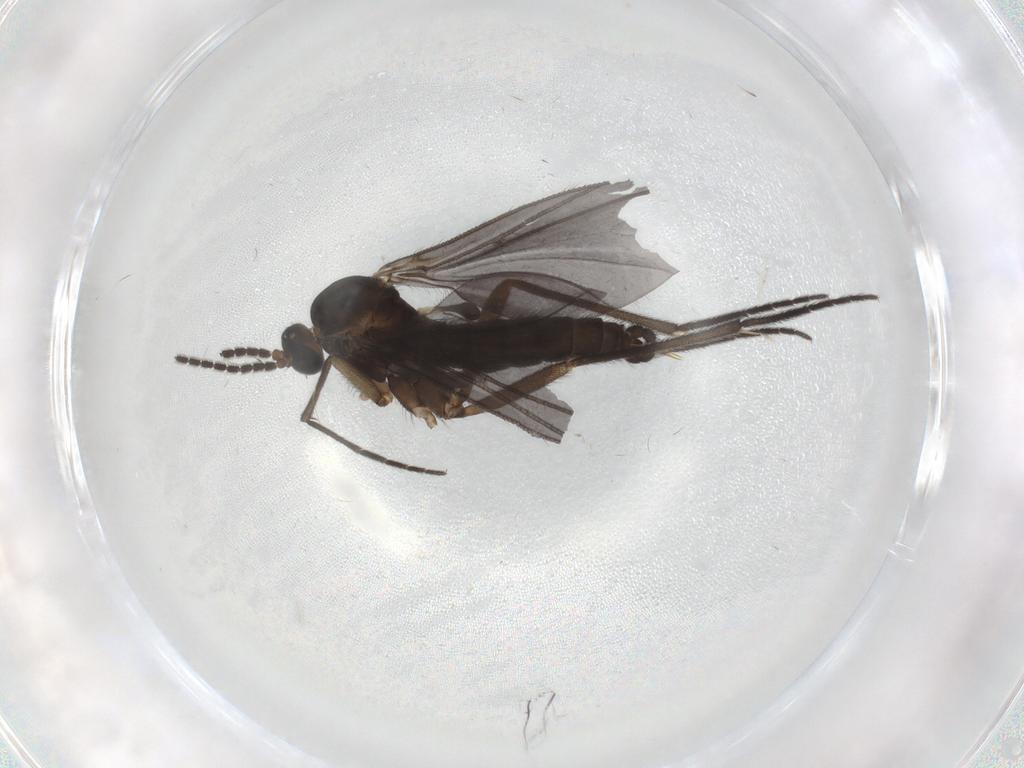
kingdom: Animalia
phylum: Arthropoda
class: Insecta
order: Diptera
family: Sciaridae
